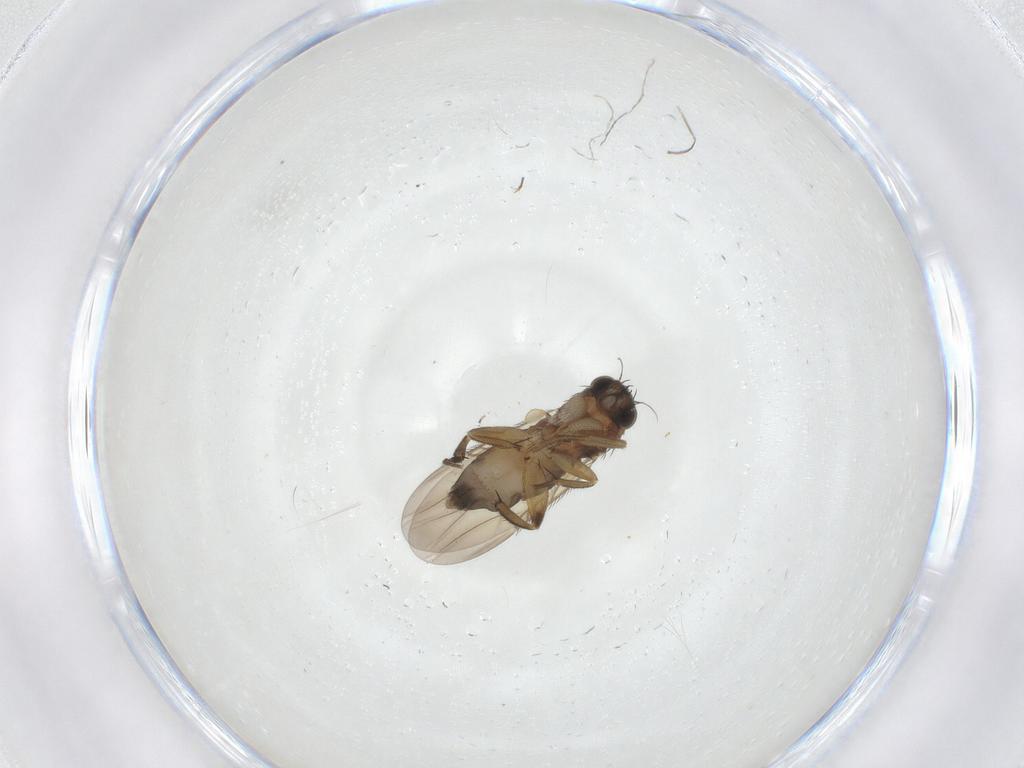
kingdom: Animalia
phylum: Arthropoda
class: Insecta
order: Diptera
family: Phoridae
